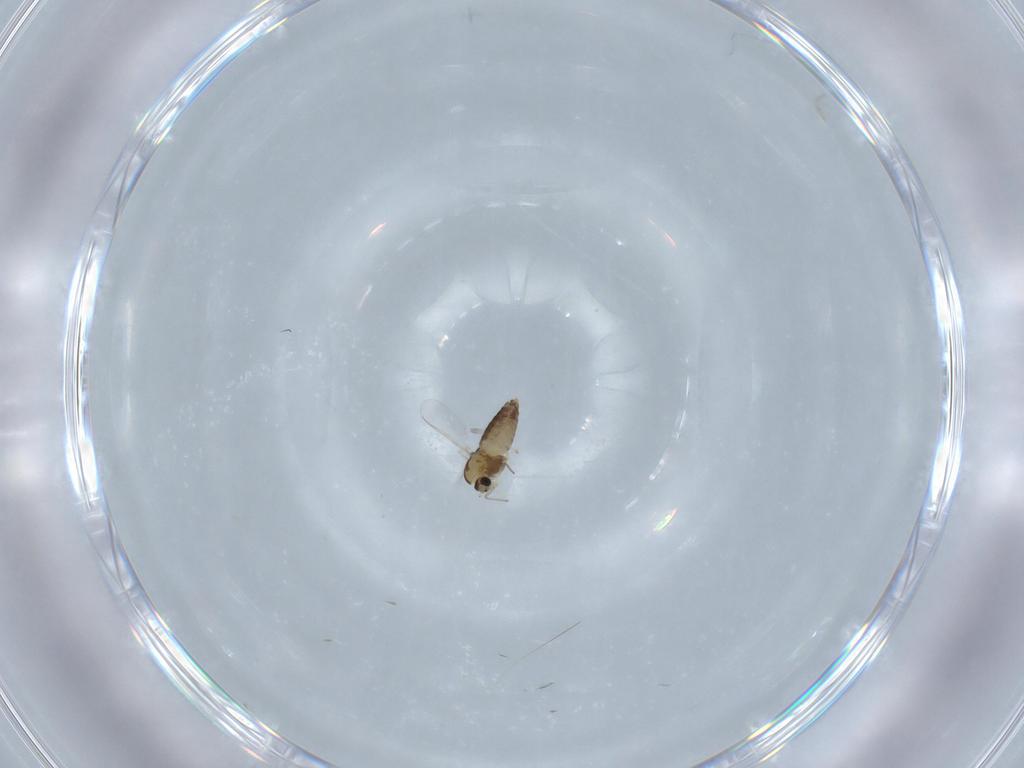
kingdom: Animalia
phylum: Arthropoda
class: Insecta
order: Diptera
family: Chironomidae
